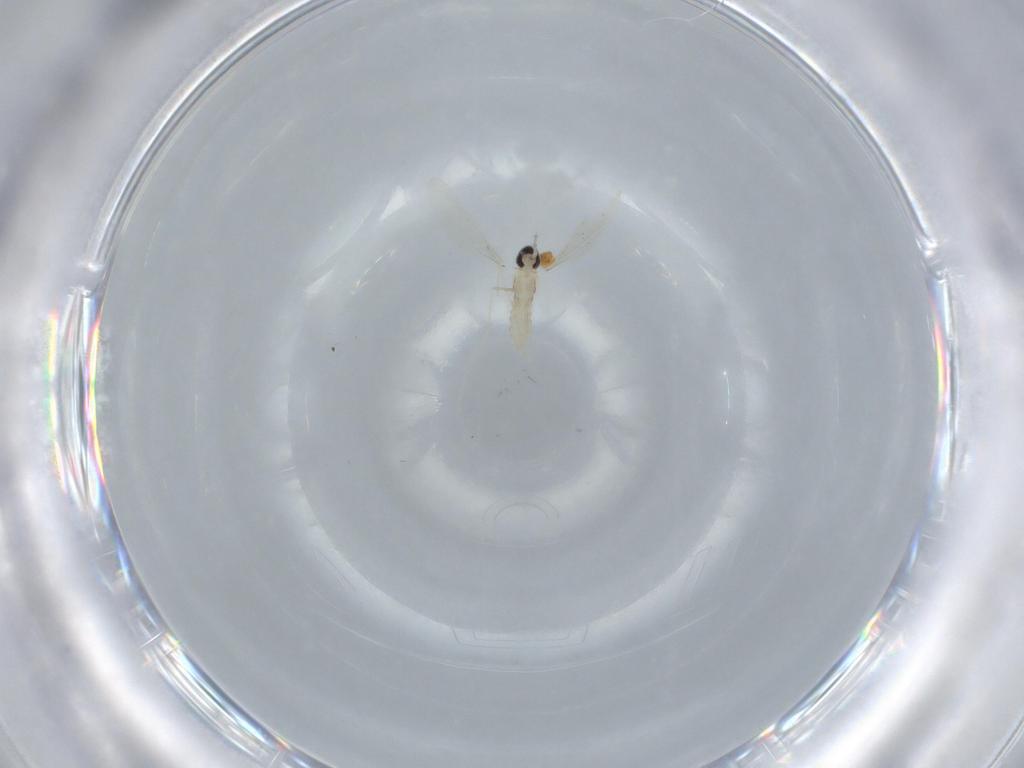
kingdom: Animalia
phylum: Arthropoda
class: Insecta
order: Diptera
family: Cecidomyiidae
